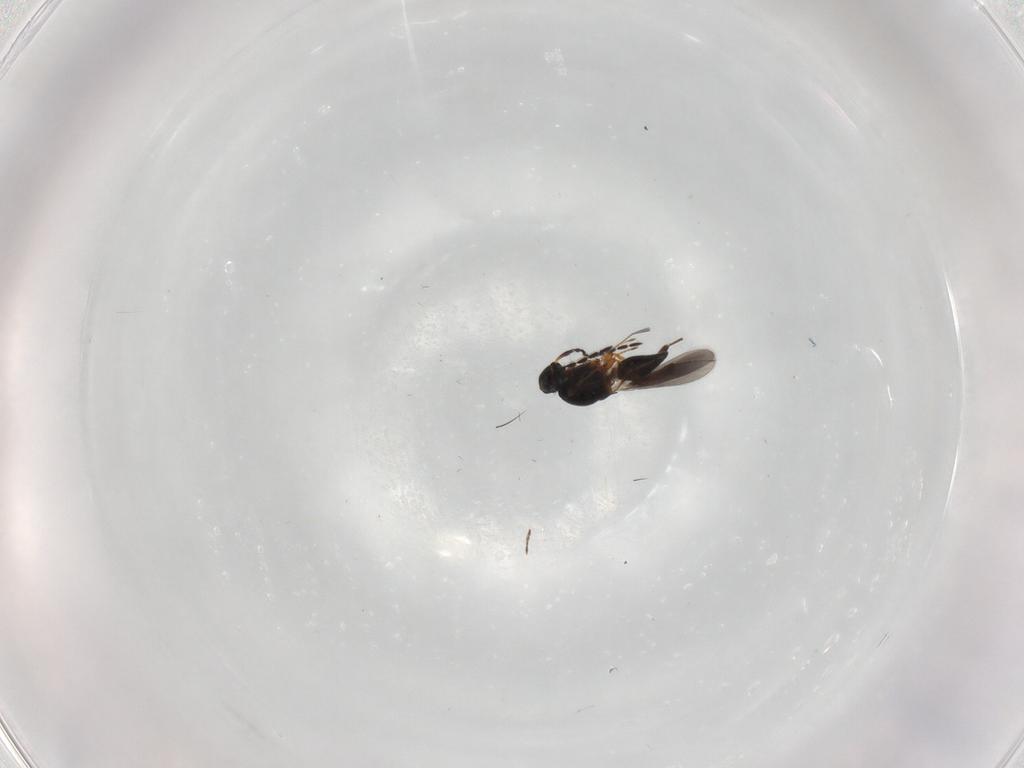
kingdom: Animalia
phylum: Arthropoda
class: Insecta
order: Hymenoptera
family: Platygastridae
